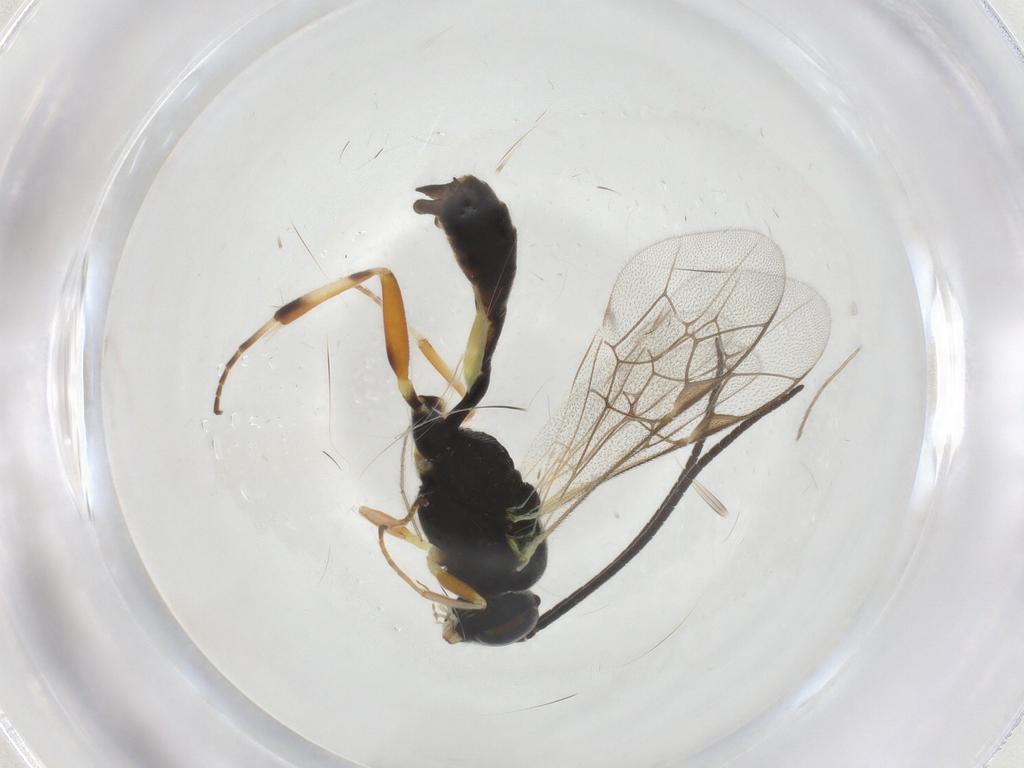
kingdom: Animalia
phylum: Arthropoda
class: Insecta
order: Hymenoptera
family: Ichneumonidae
